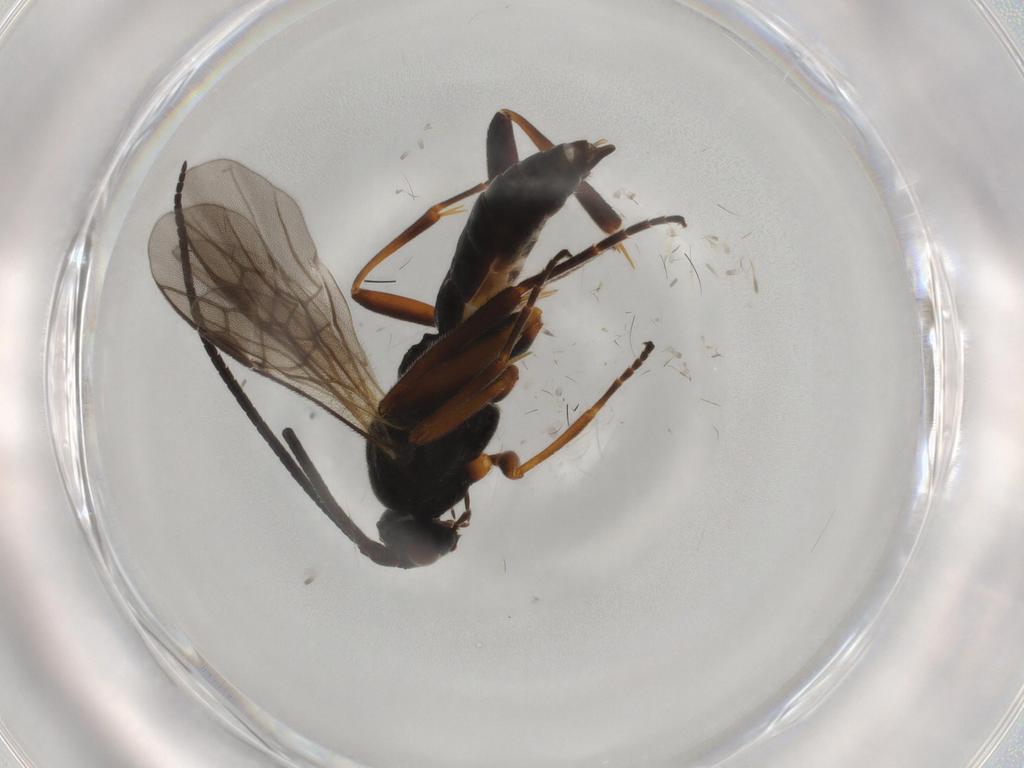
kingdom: Animalia
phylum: Arthropoda
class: Insecta
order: Hymenoptera
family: Braconidae
